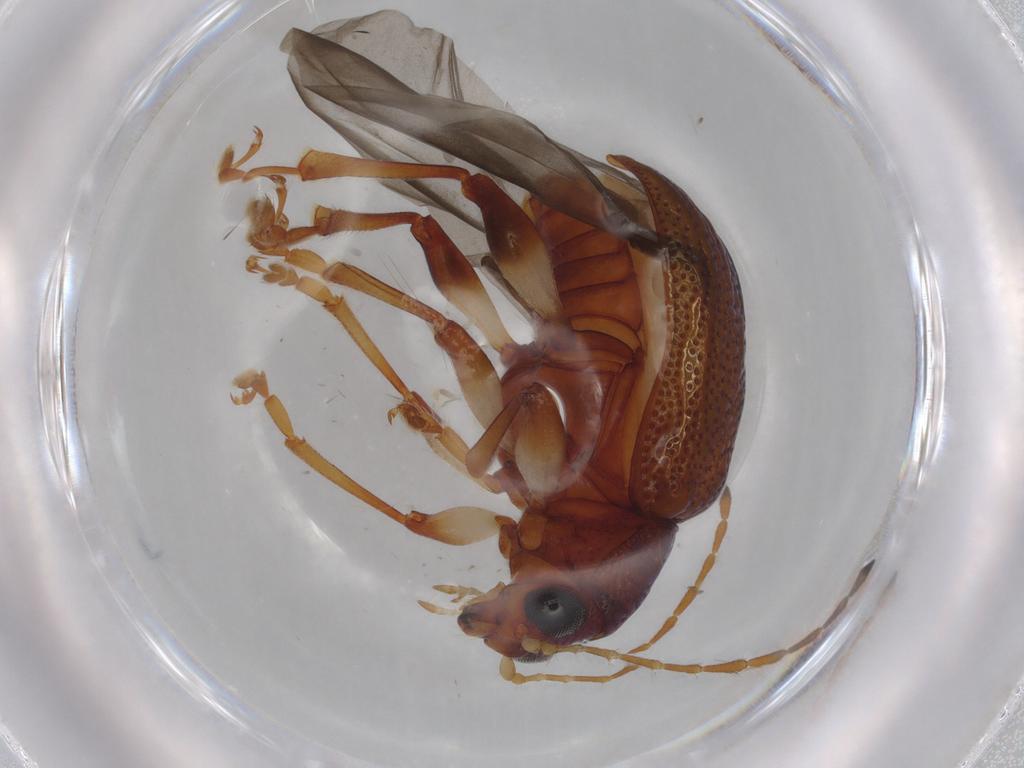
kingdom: Animalia
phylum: Arthropoda
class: Insecta
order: Coleoptera
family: Chrysomelidae
